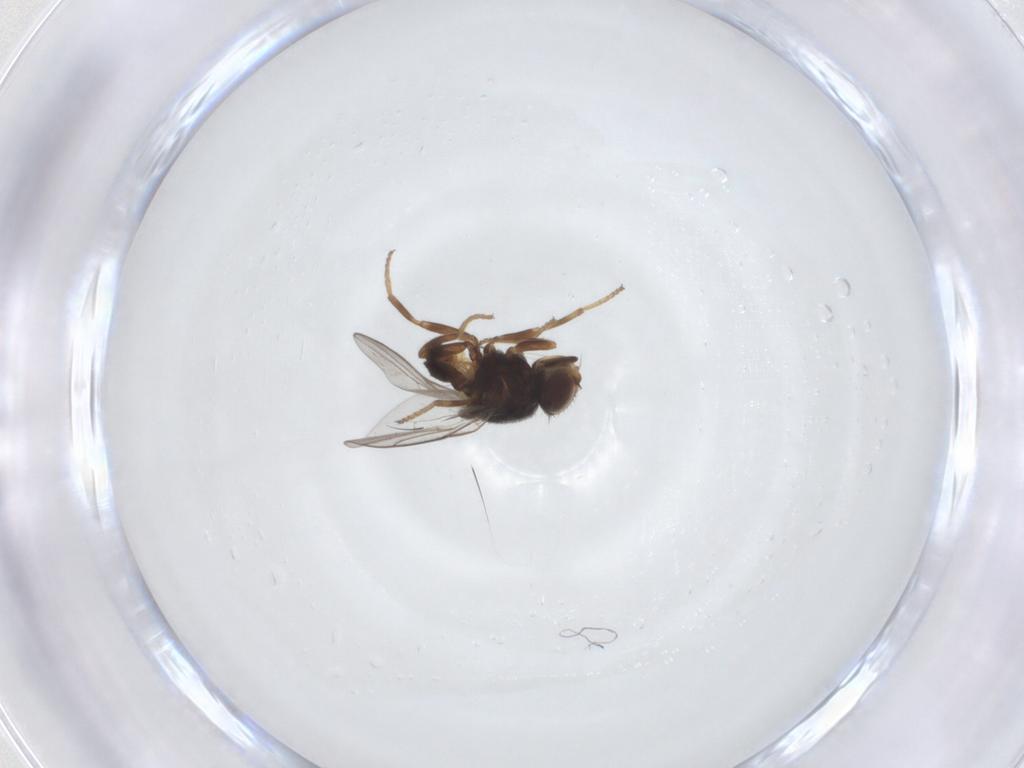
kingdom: Animalia
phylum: Arthropoda
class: Insecta
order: Diptera
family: Chloropidae
